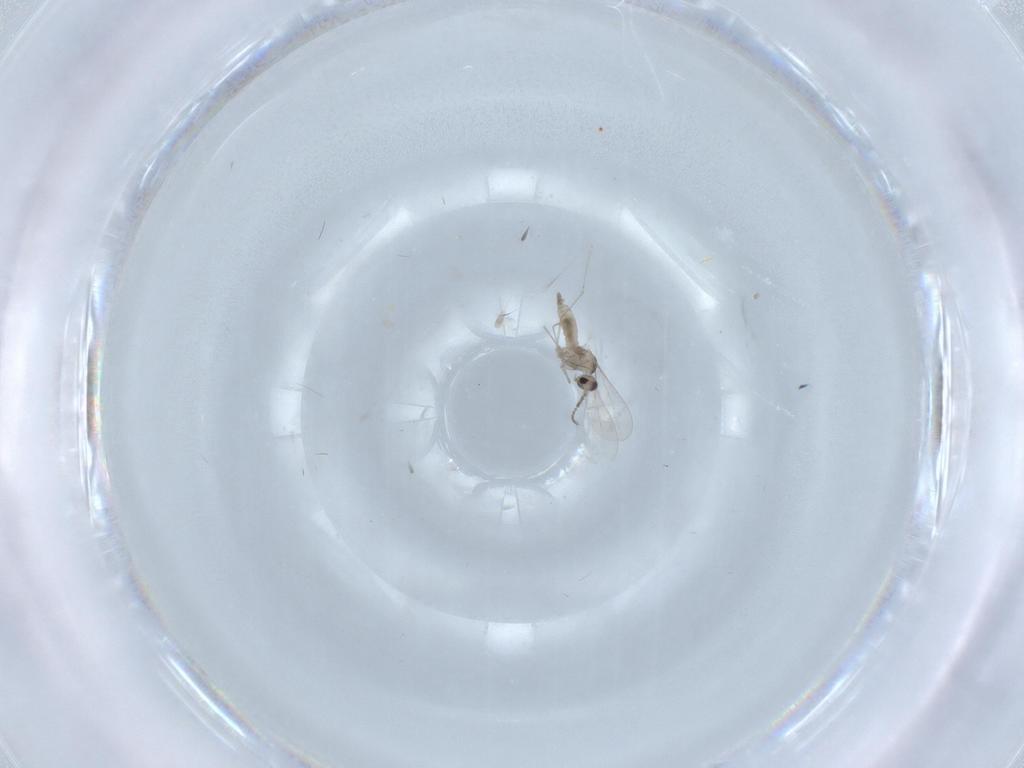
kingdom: Animalia
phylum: Arthropoda
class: Insecta
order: Diptera
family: Cecidomyiidae
